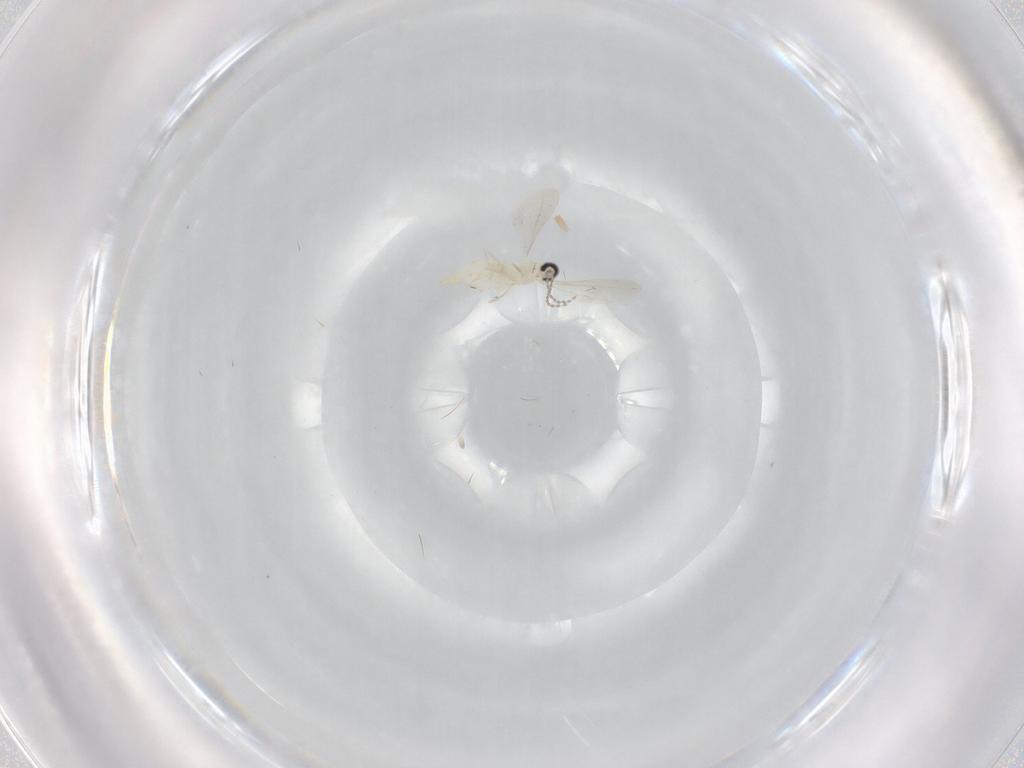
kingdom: Animalia
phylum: Arthropoda
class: Insecta
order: Diptera
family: Cecidomyiidae
